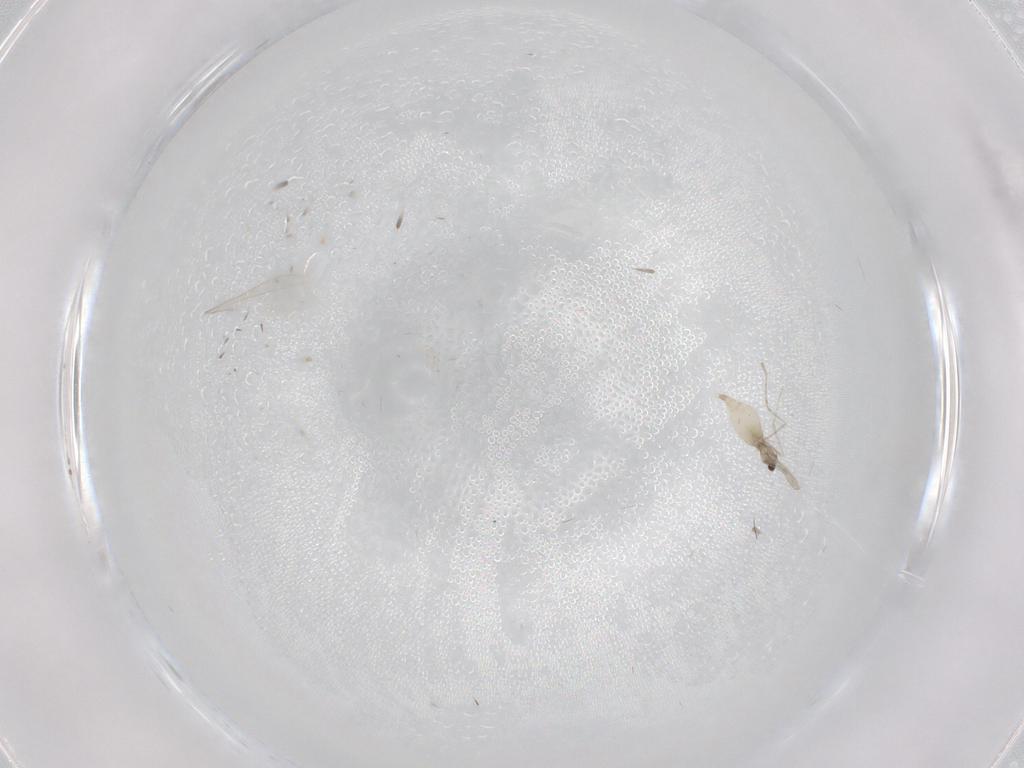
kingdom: Animalia
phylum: Arthropoda
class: Insecta
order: Diptera
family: Cecidomyiidae
